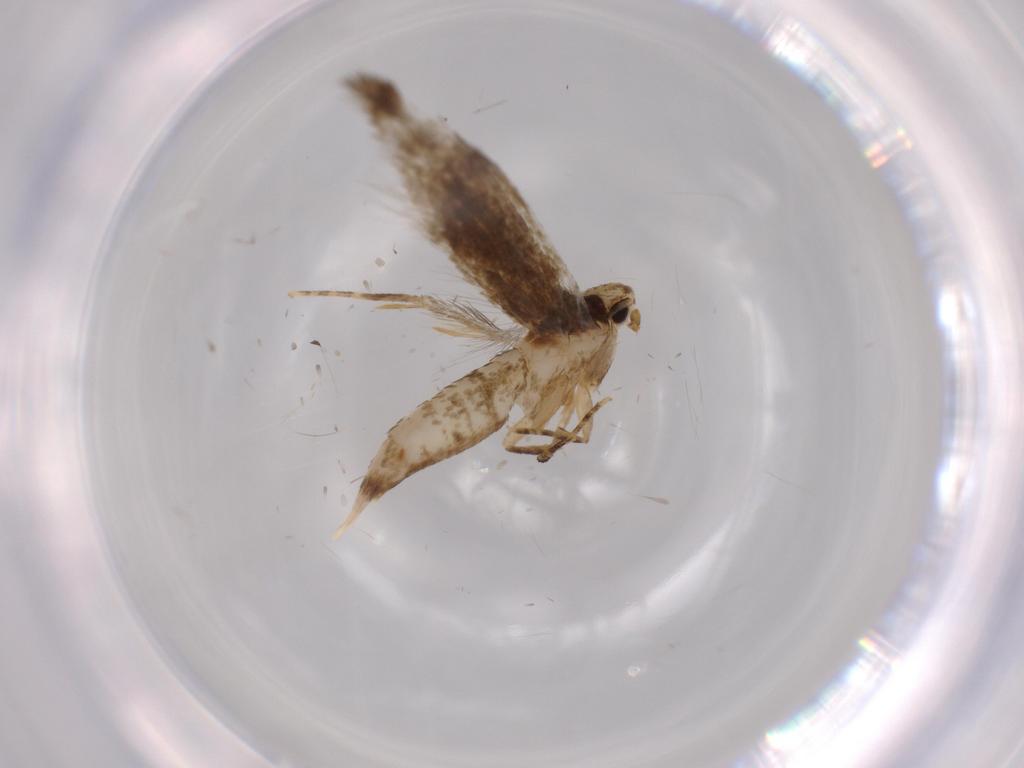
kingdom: Animalia
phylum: Arthropoda
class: Insecta
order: Lepidoptera
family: Tineidae
